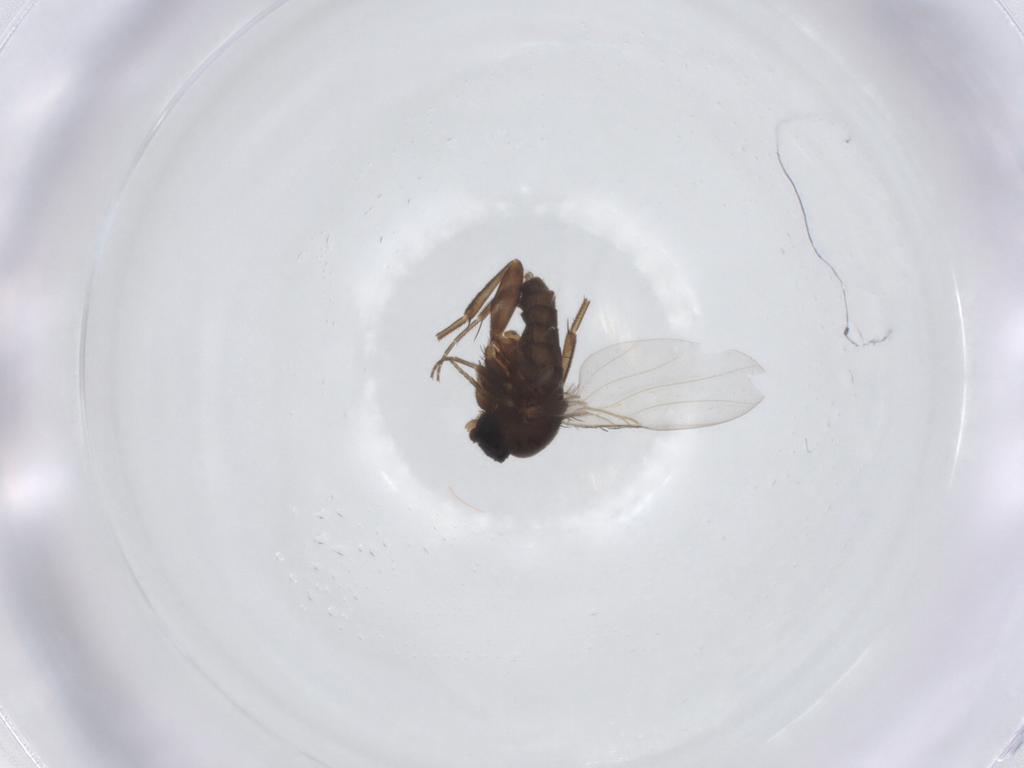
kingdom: Animalia
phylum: Arthropoda
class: Insecta
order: Diptera
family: Phoridae
